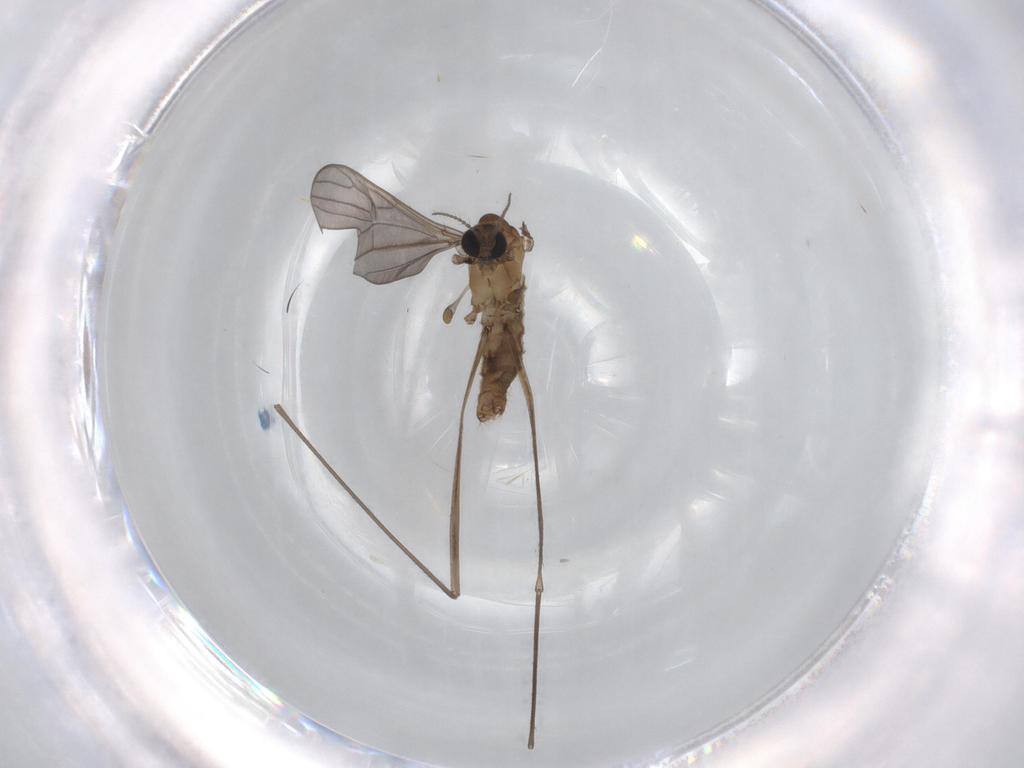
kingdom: Animalia
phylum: Arthropoda
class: Insecta
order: Diptera
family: Limoniidae
